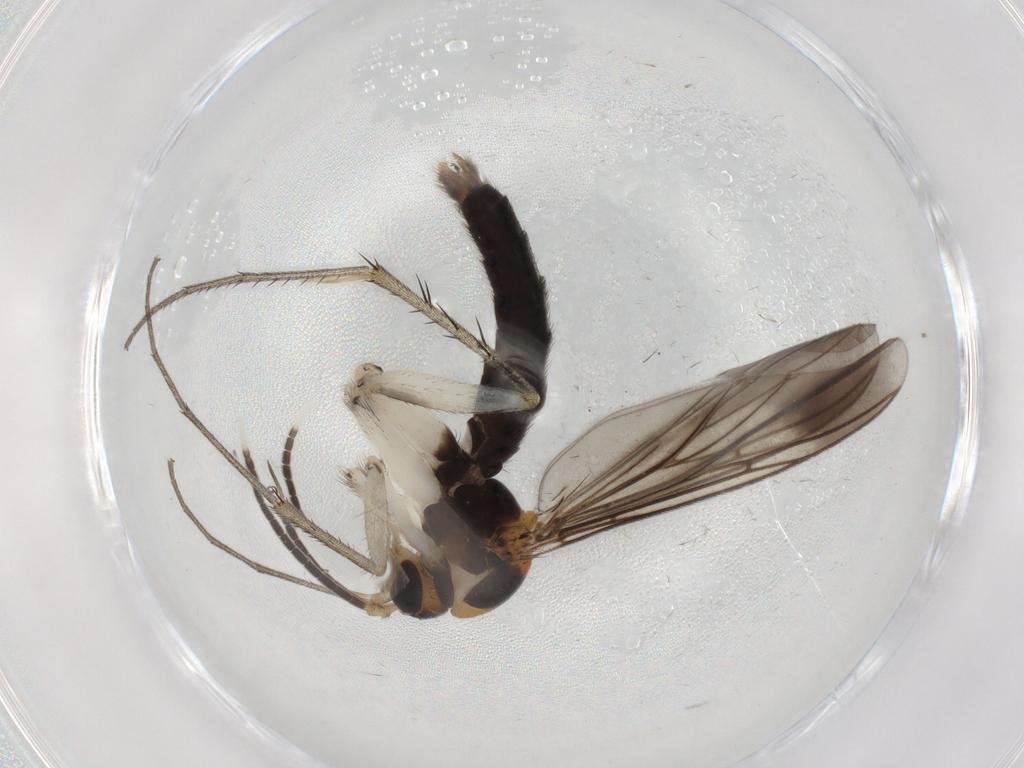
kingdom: Animalia
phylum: Arthropoda
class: Insecta
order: Diptera
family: Mycetophilidae
